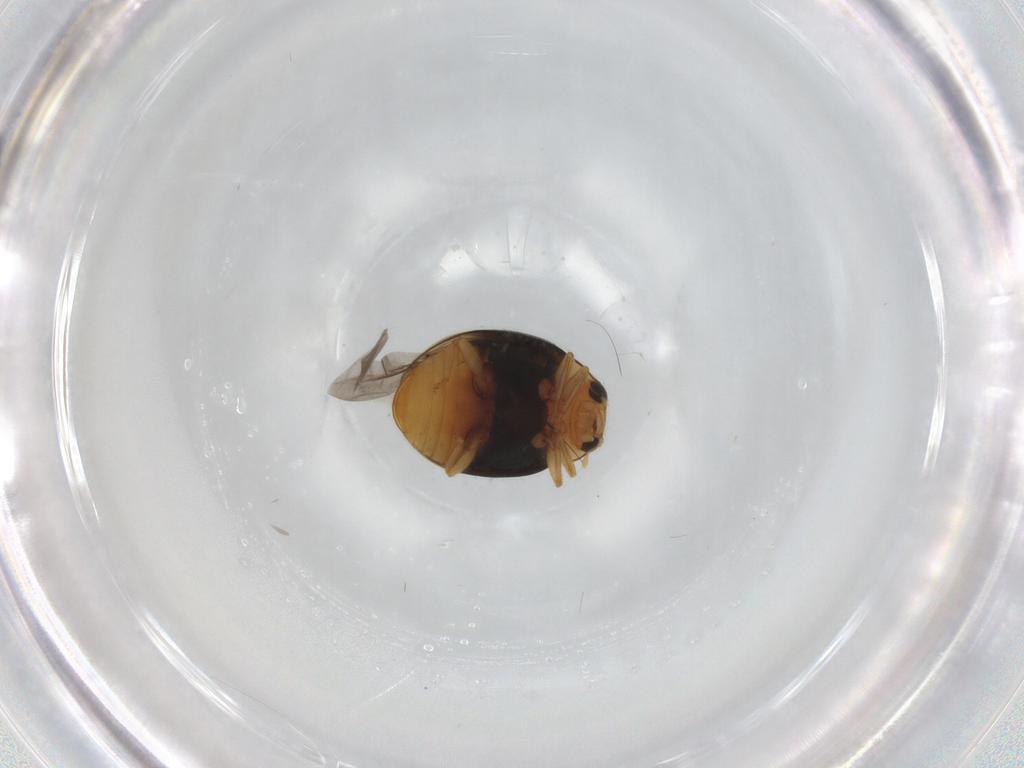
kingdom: Animalia
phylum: Arthropoda
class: Insecta
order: Coleoptera
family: Coccinellidae
